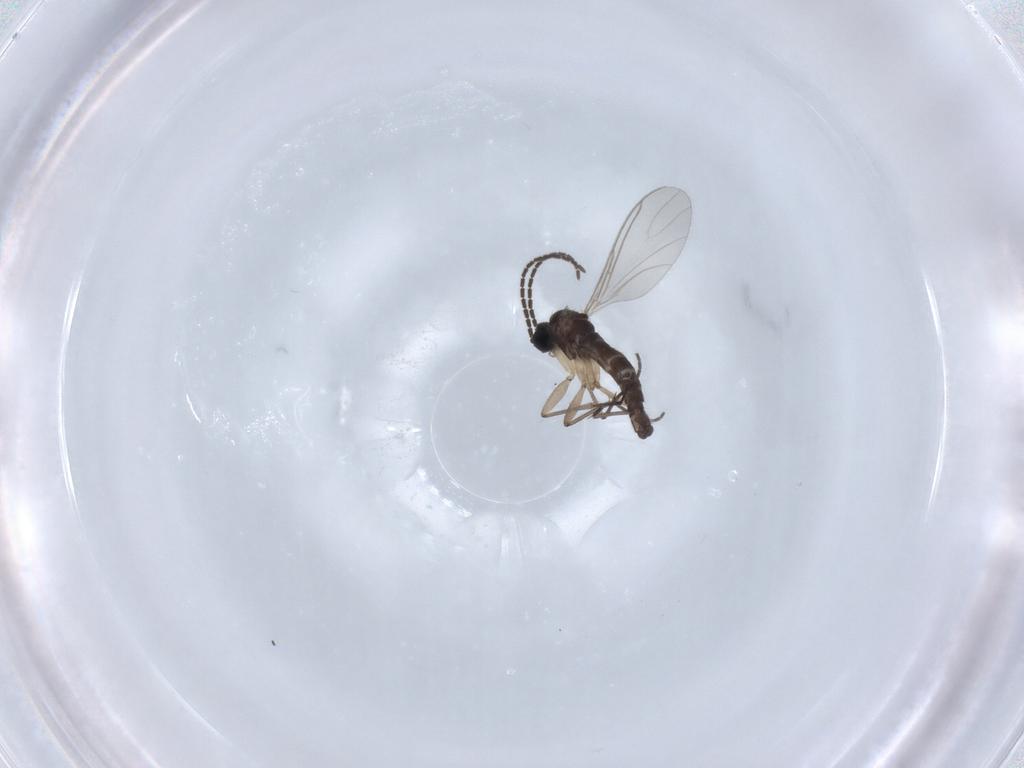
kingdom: Animalia
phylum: Arthropoda
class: Insecta
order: Diptera
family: Sciaridae
